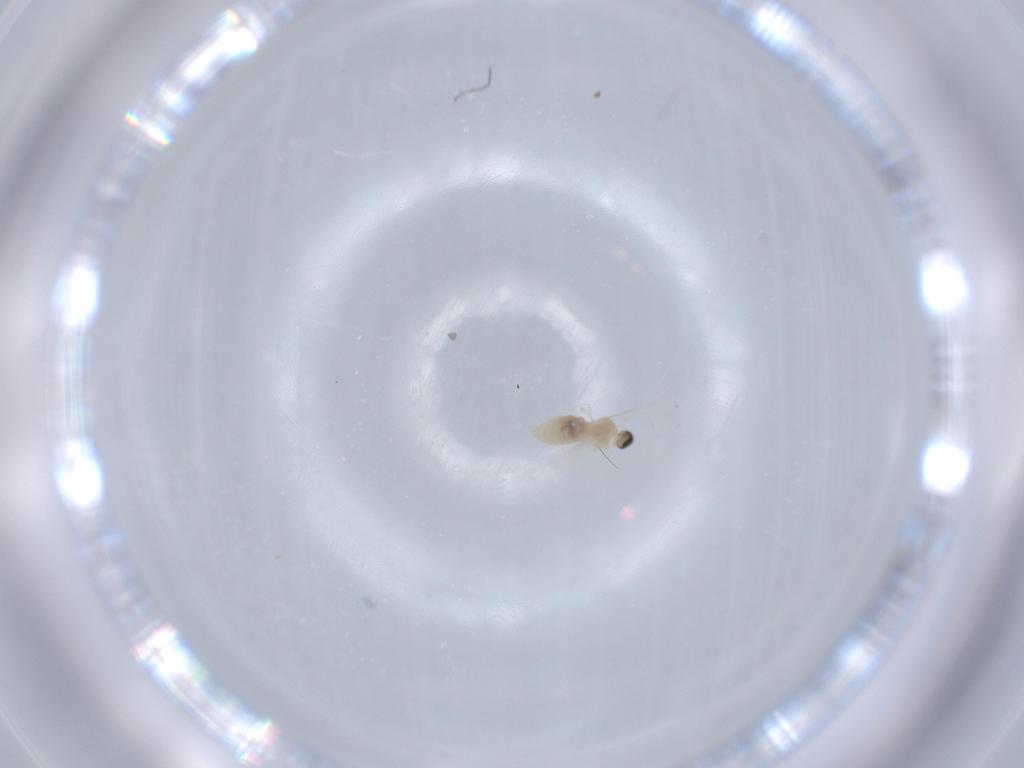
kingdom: Animalia
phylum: Arthropoda
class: Insecta
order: Diptera
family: Cecidomyiidae
